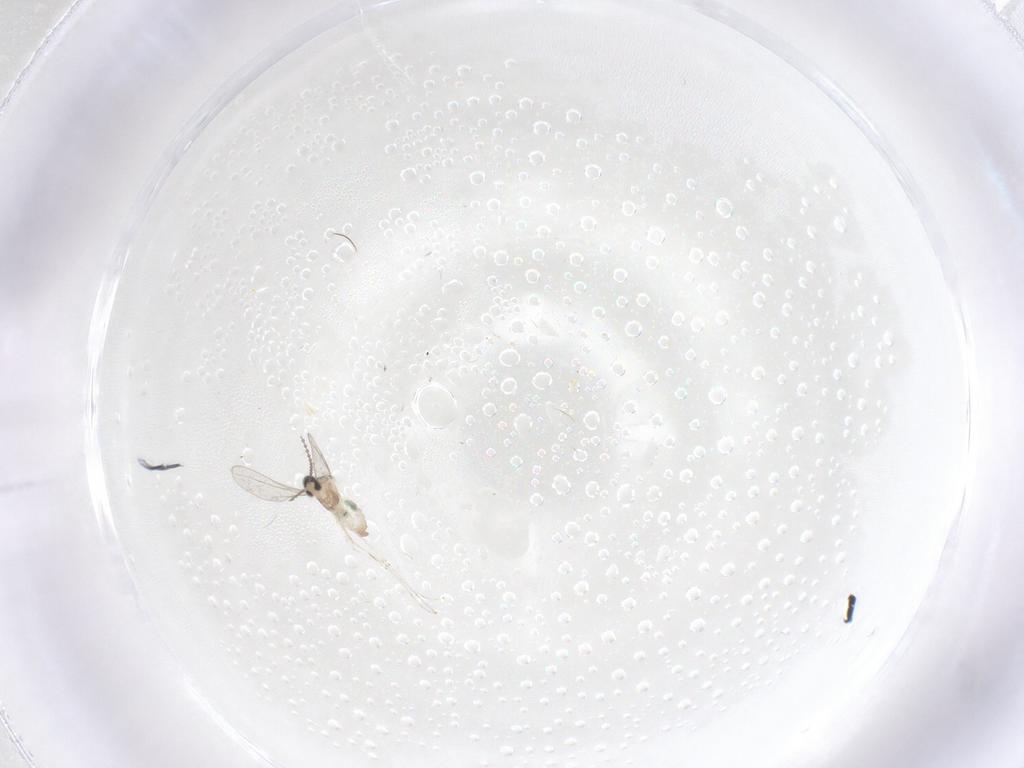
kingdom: Animalia
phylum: Arthropoda
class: Insecta
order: Diptera
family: Cecidomyiidae
